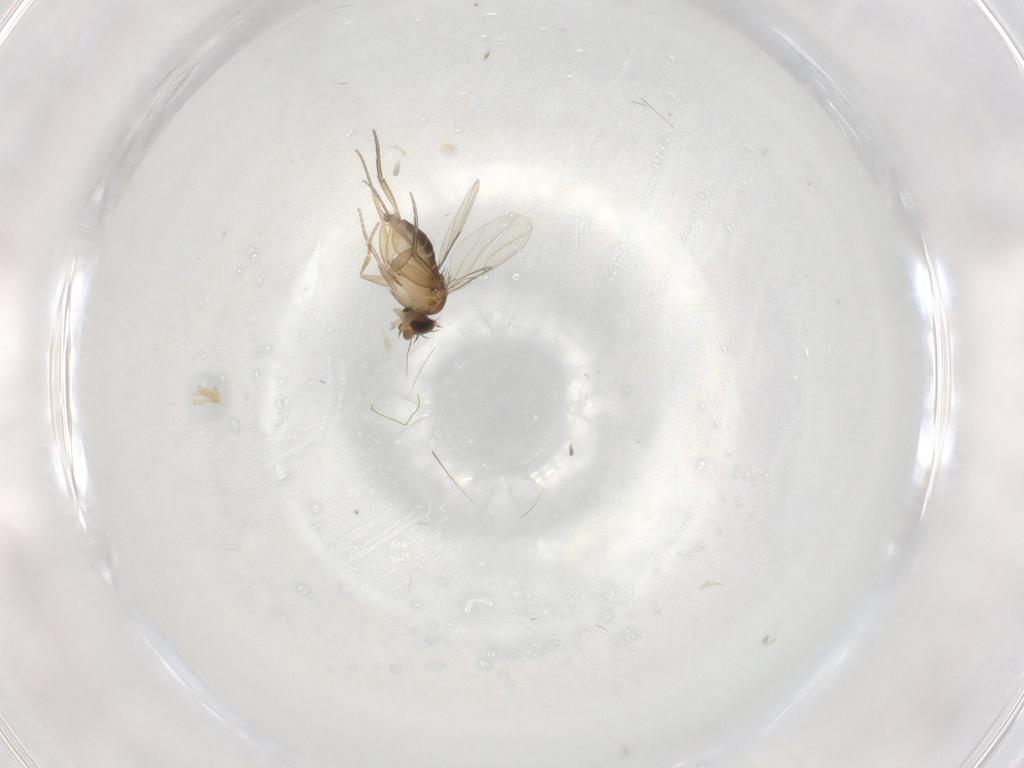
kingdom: Animalia
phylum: Arthropoda
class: Insecta
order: Diptera
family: Phoridae
